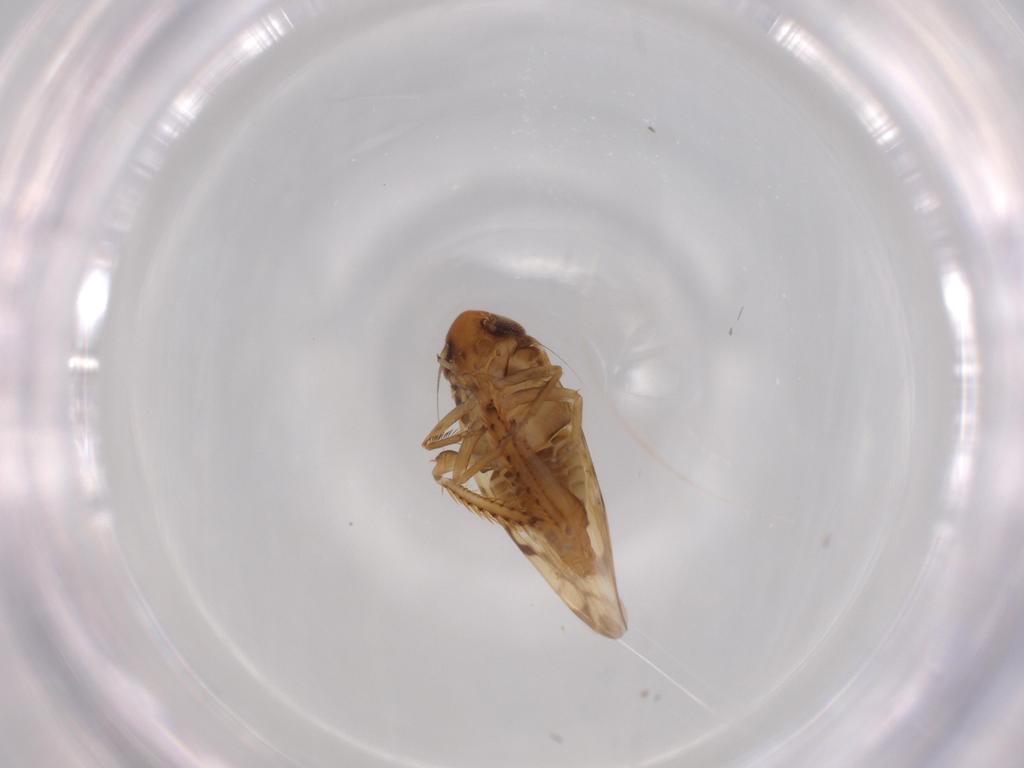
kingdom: Animalia
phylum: Arthropoda
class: Insecta
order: Hemiptera
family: Cicadellidae
